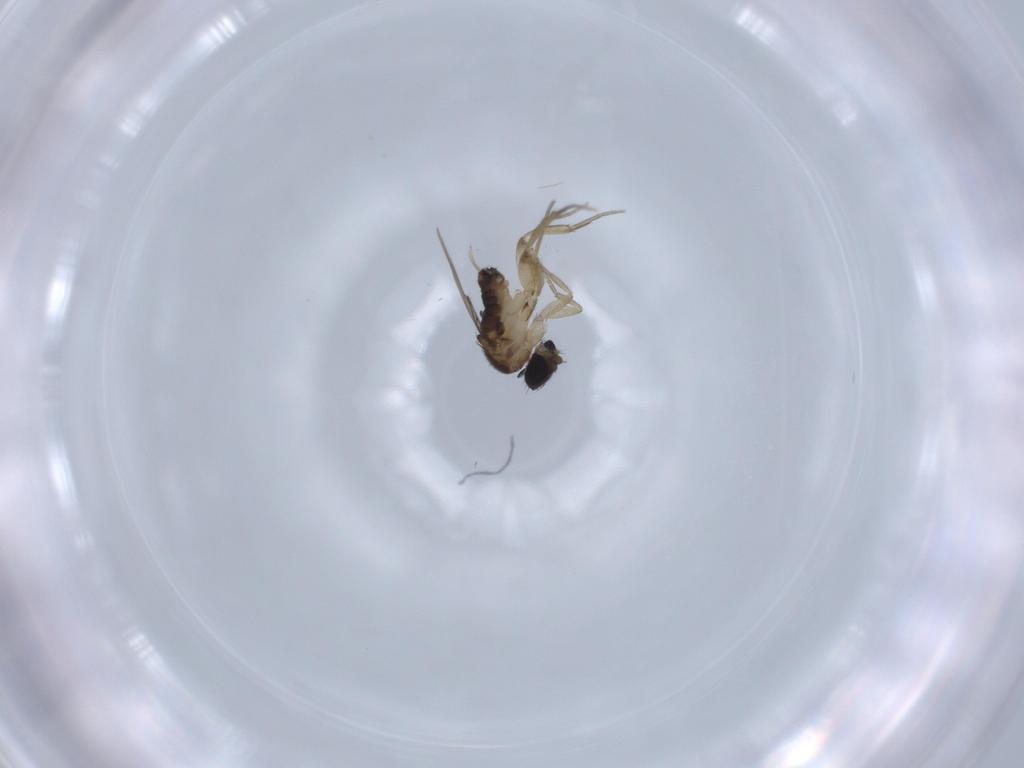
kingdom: Animalia
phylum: Arthropoda
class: Insecta
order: Diptera
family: Phoridae
